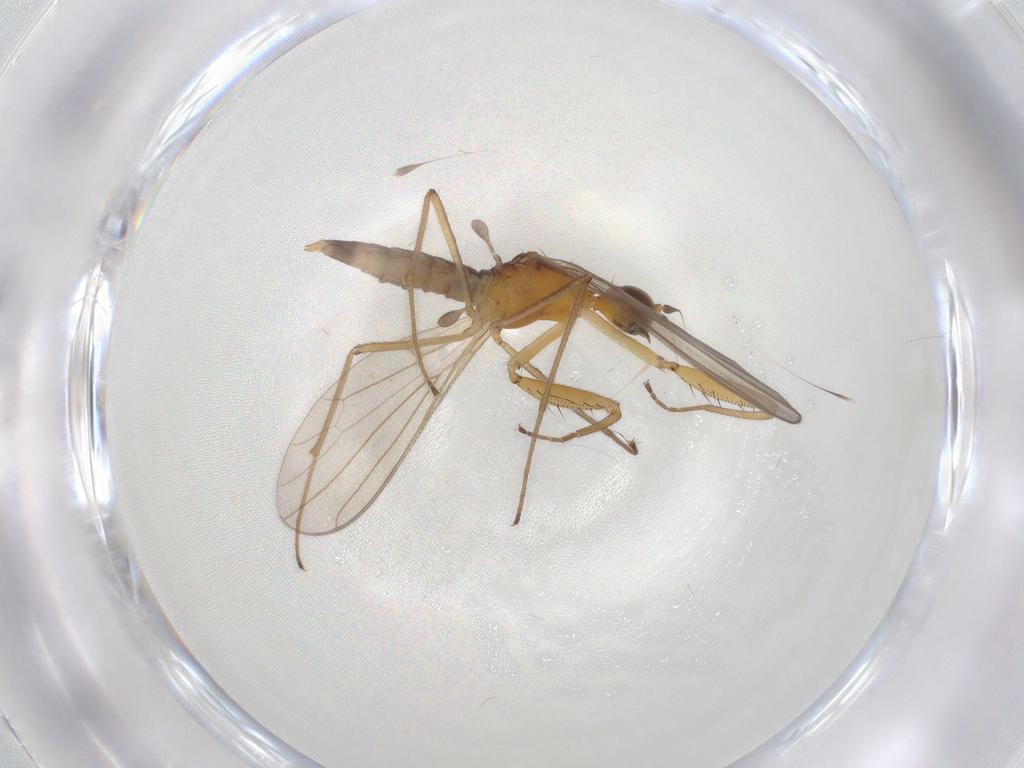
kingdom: Animalia
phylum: Arthropoda
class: Insecta
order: Diptera
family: Empididae
